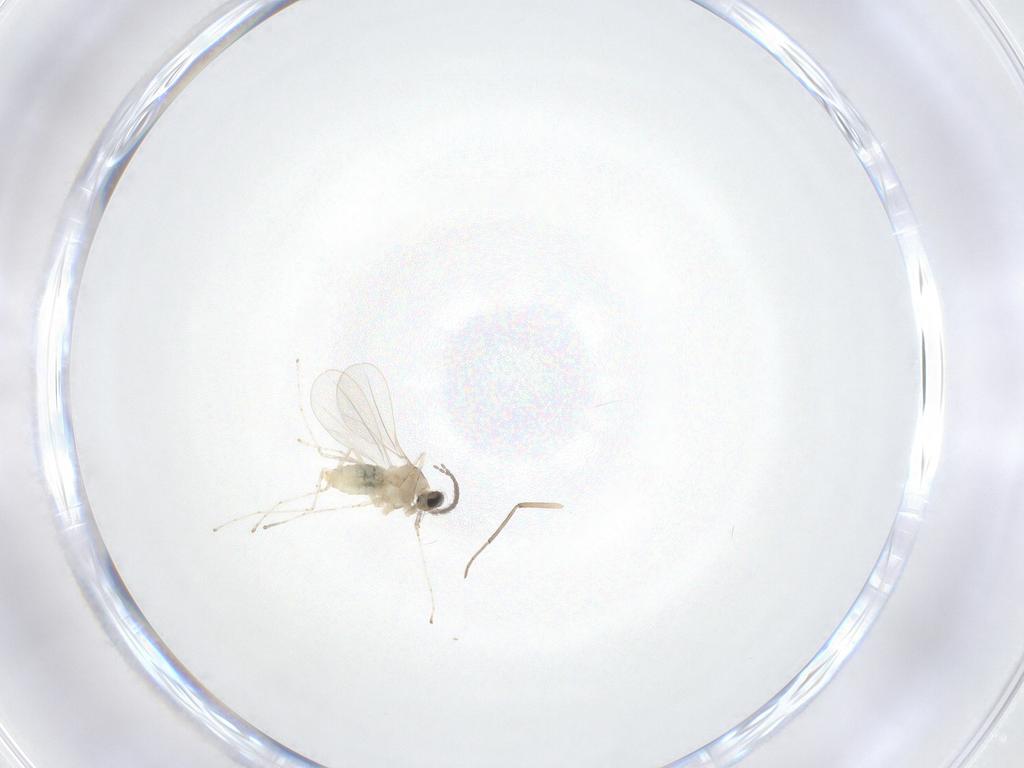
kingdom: Animalia
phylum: Arthropoda
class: Insecta
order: Diptera
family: Cecidomyiidae
